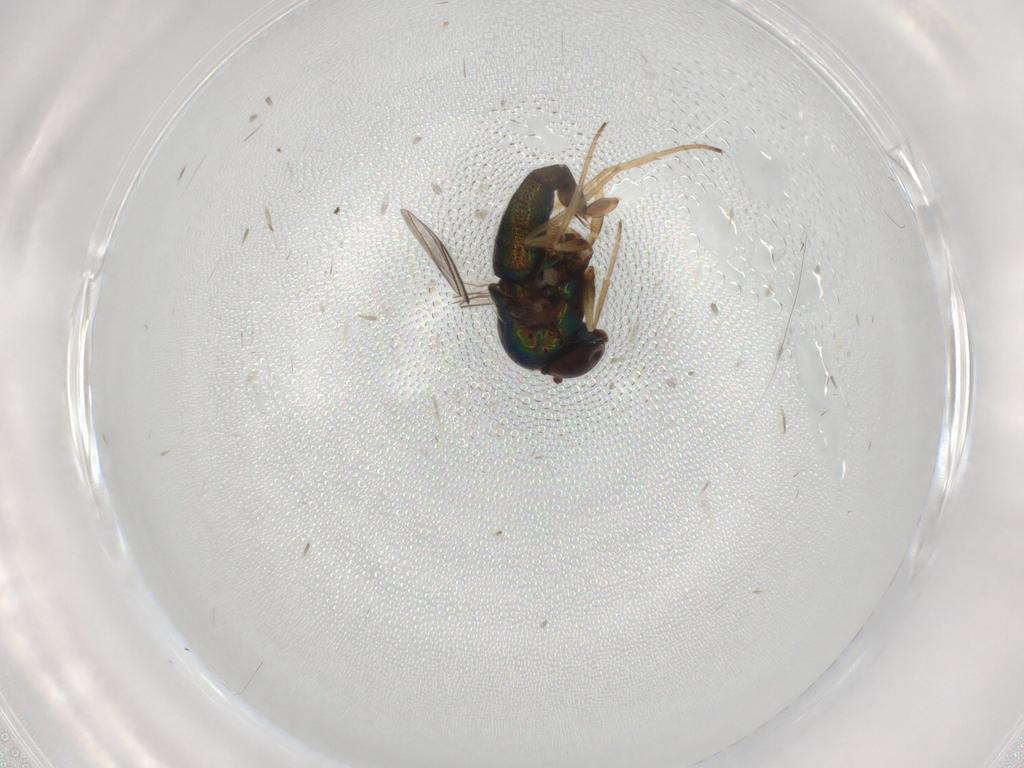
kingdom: Animalia
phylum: Arthropoda
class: Insecta
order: Diptera
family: Dolichopodidae
